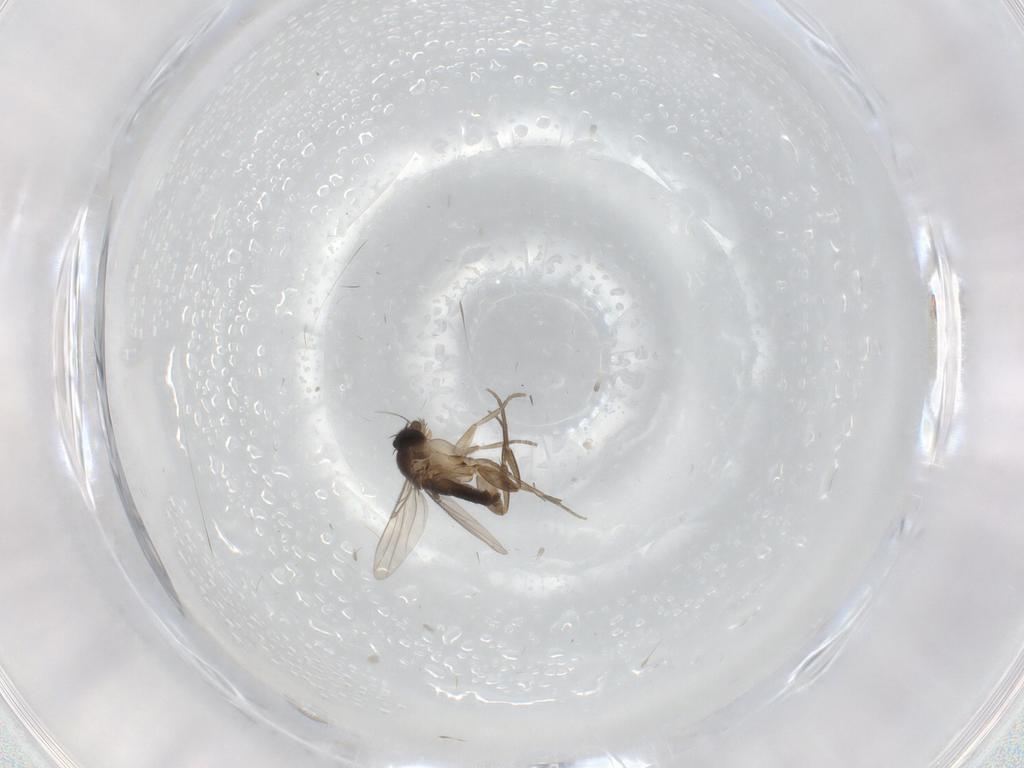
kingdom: Animalia
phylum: Arthropoda
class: Insecta
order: Diptera
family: Phoridae
